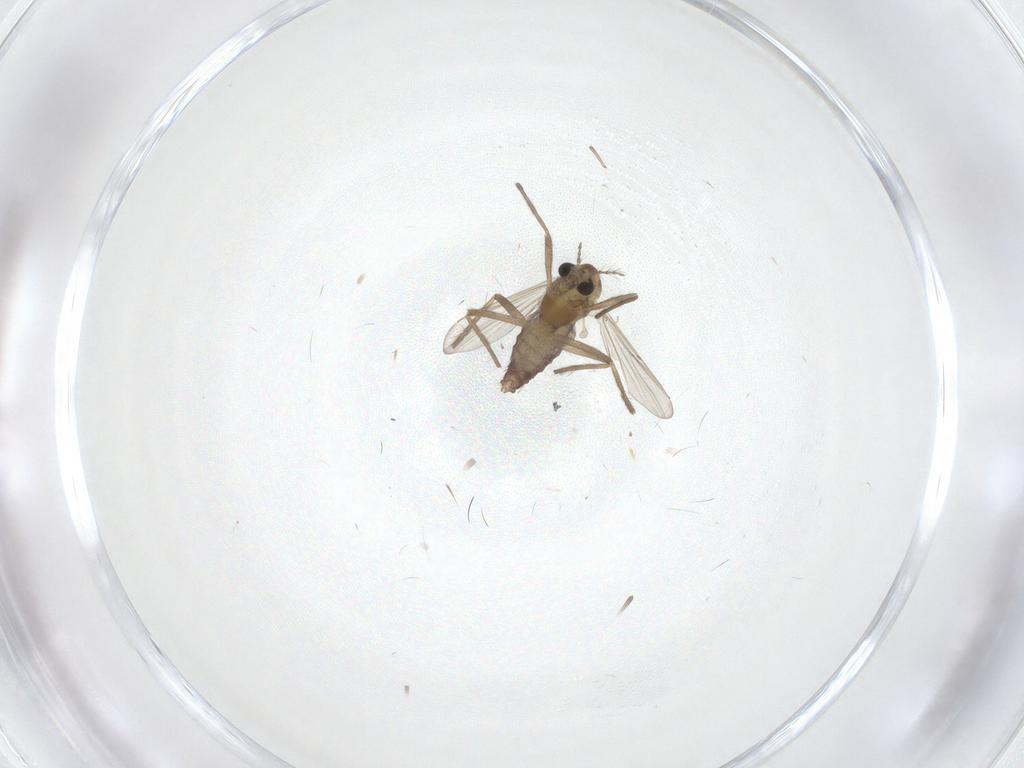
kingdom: Animalia
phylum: Arthropoda
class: Insecta
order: Diptera
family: Chironomidae
